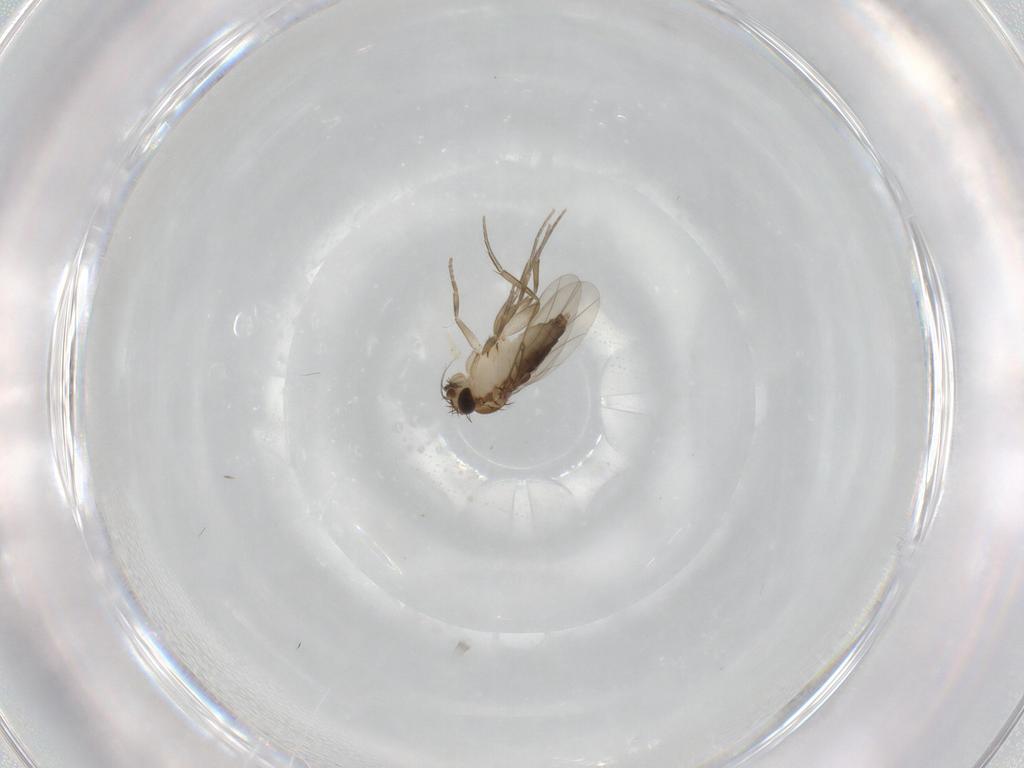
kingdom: Animalia
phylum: Arthropoda
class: Insecta
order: Diptera
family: Phoridae
